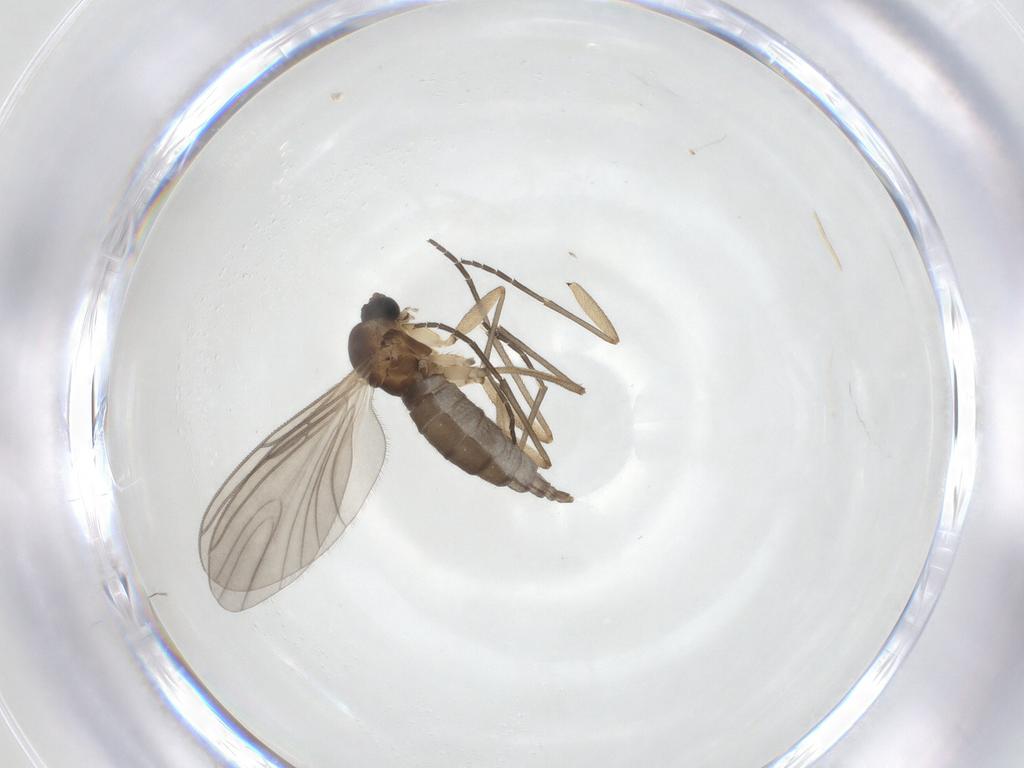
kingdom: Animalia
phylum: Arthropoda
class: Insecta
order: Diptera
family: Sciaridae
